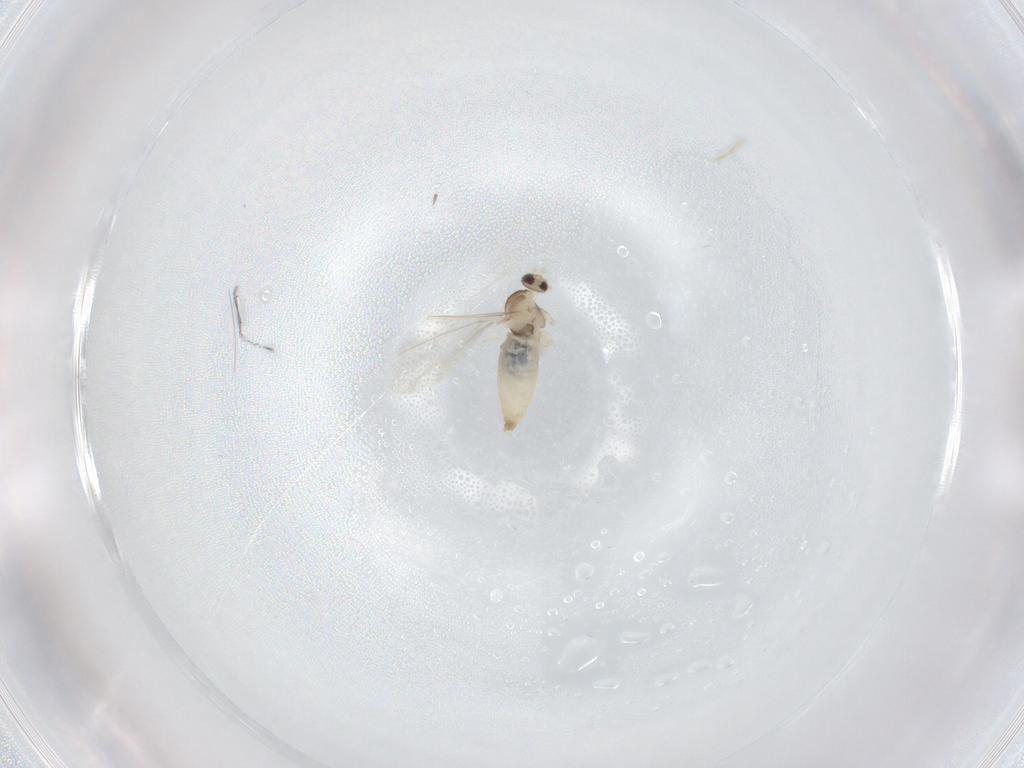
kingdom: Animalia
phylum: Arthropoda
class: Insecta
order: Diptera
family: Cecidomyiidae
